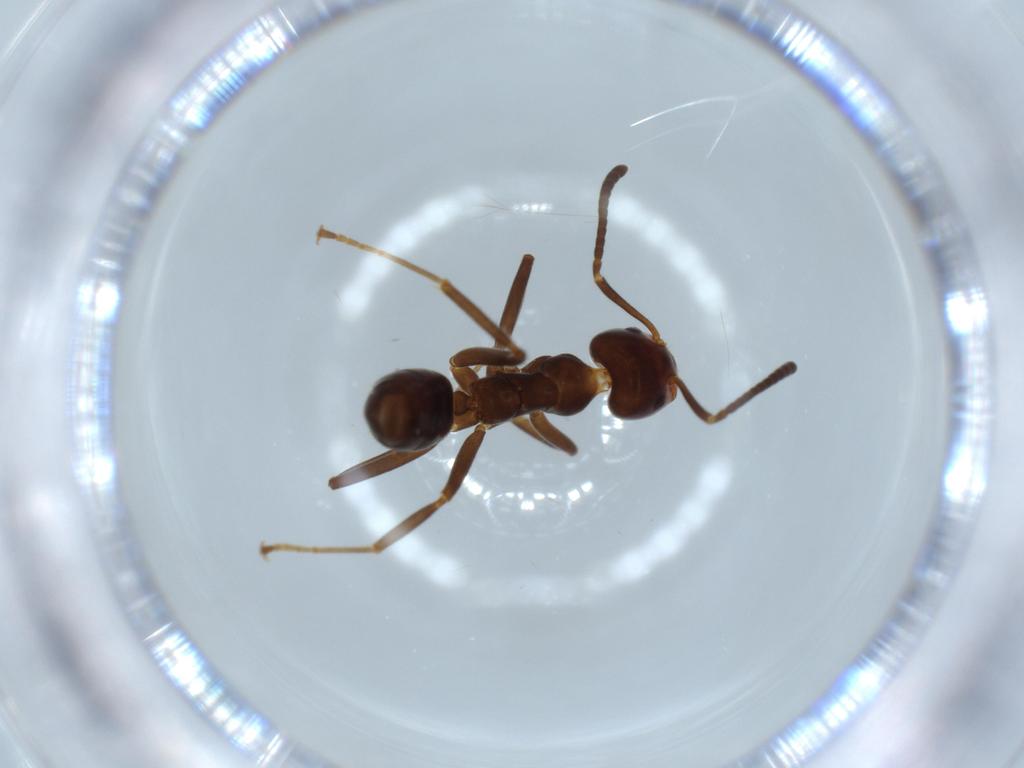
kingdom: Animalia
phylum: Arthropoda
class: Insecta
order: Hymenoptera
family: Formicidae
